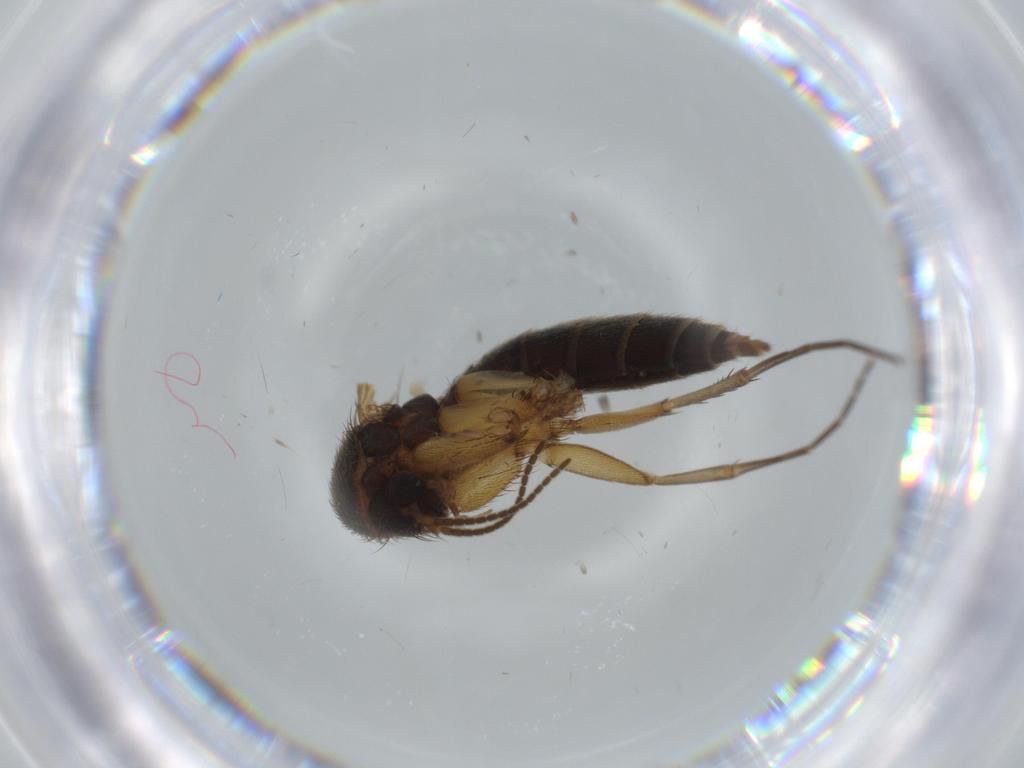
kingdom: Animalia
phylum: Arthropoda
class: Insecta
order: Diptera
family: Mycetophilidae
